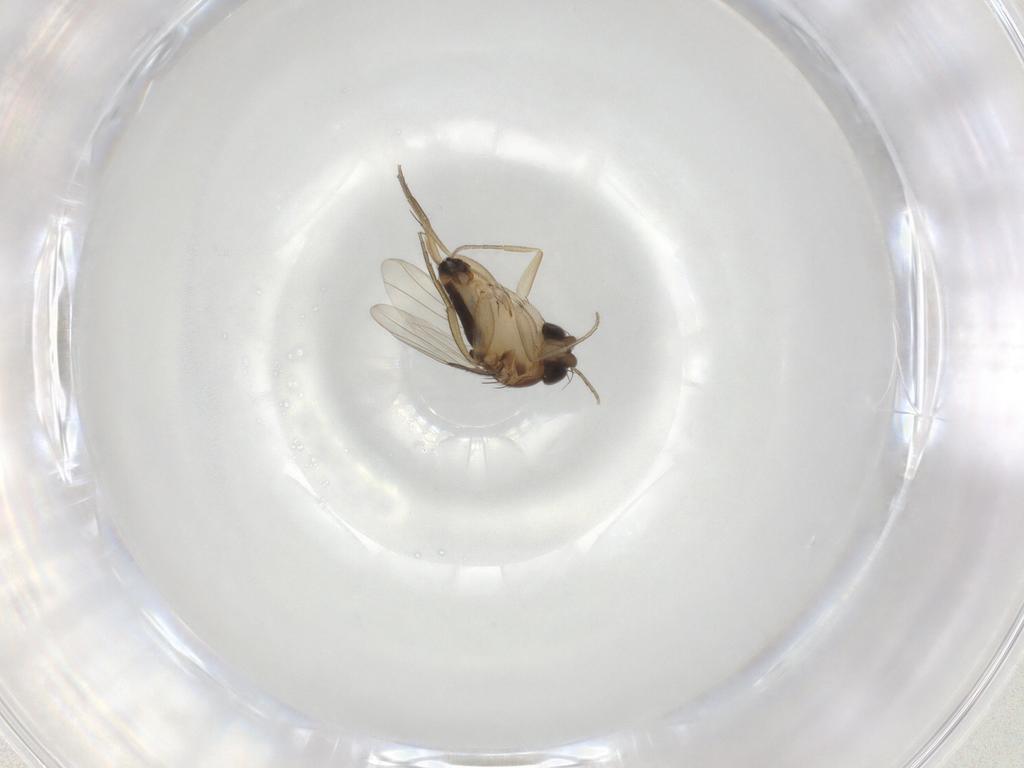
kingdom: Animalia
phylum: Arthropoda
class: Insecta
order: Diptera
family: Phoridae
